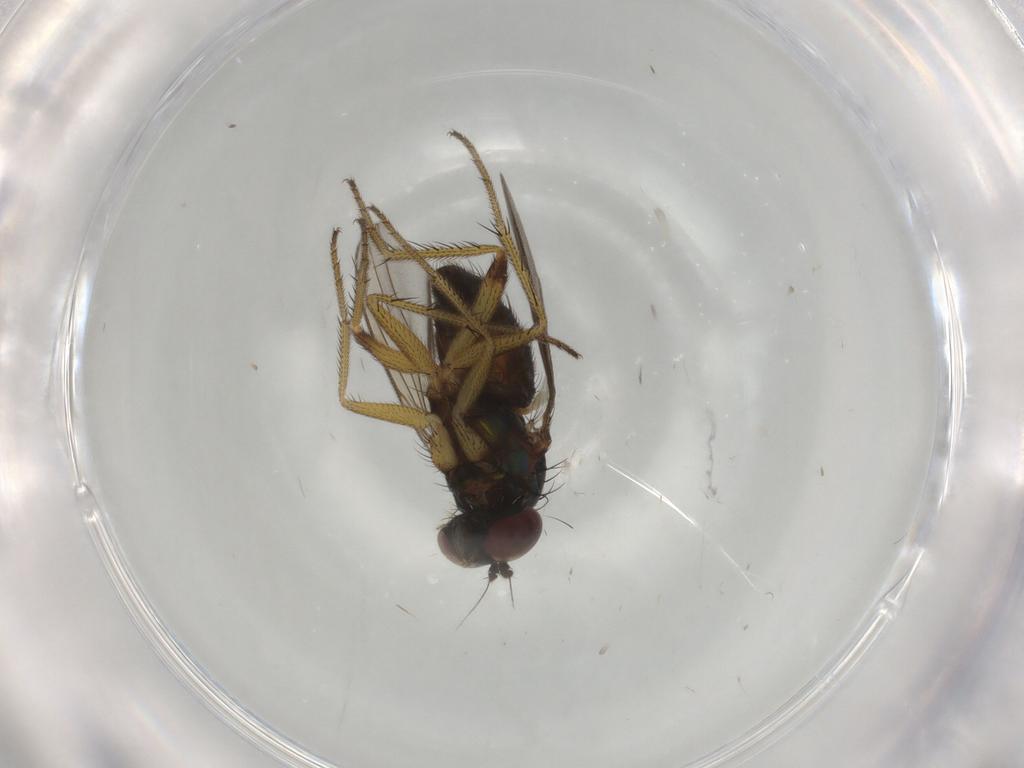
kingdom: Animalia
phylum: Arthropoda
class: Insecta
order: Diptera
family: Dolichopodidae
